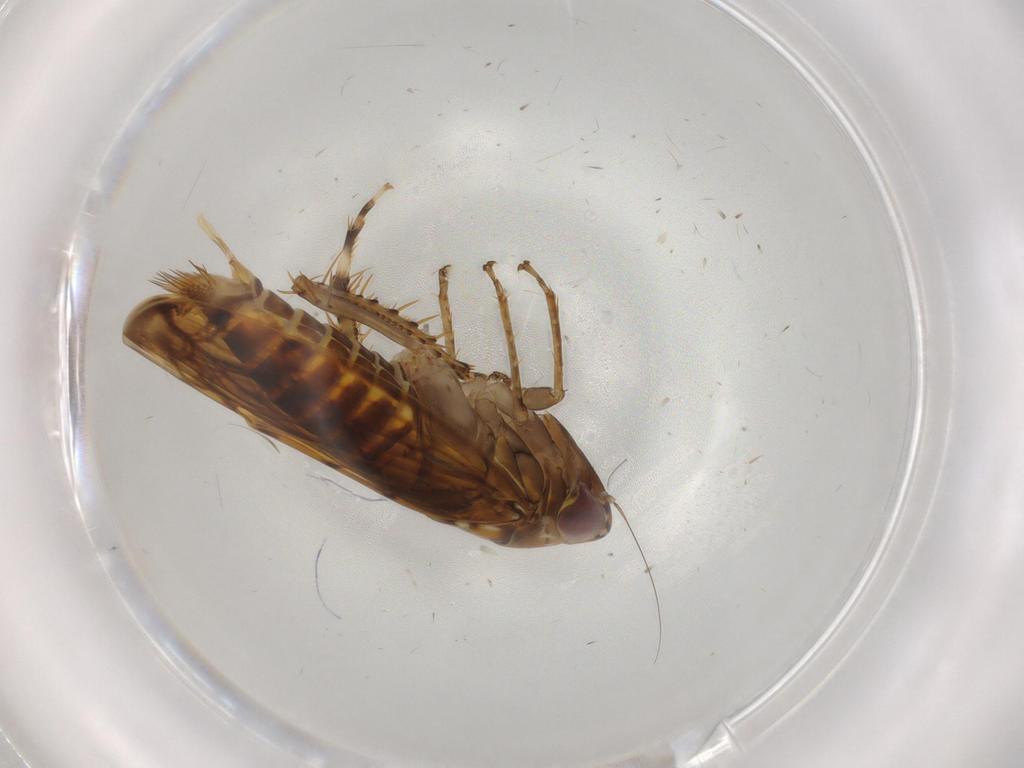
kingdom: Animalia
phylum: Arthropoda
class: Insecta
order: Hemiptera
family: Cicadellidae
